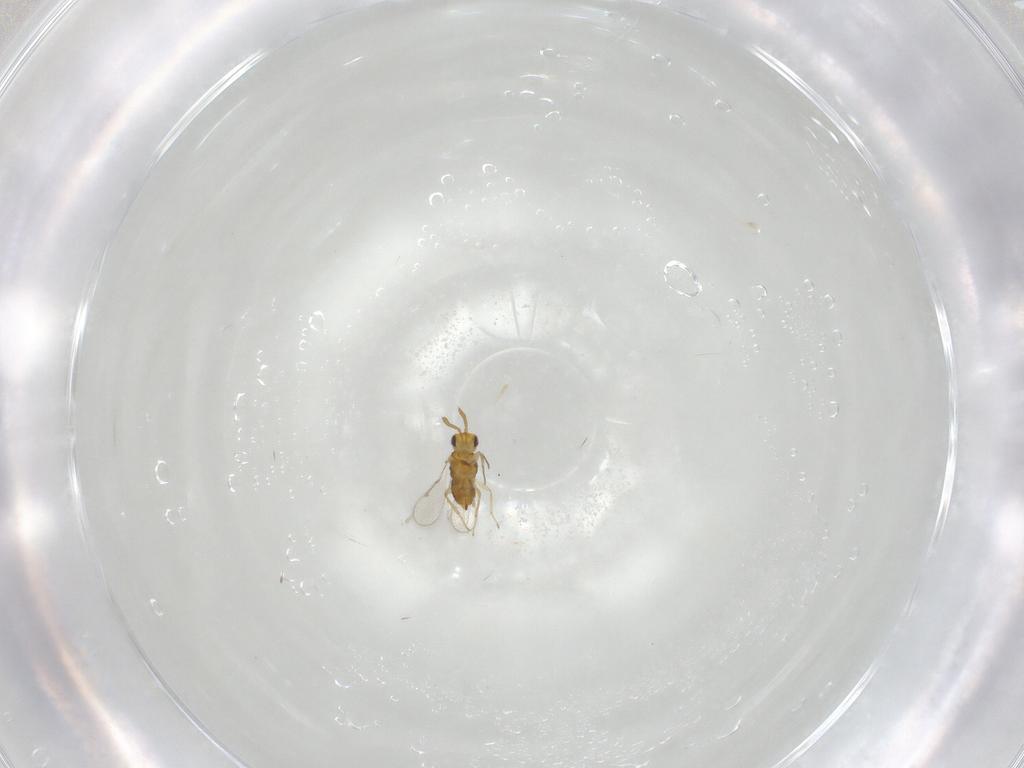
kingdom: Animalia
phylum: Arthropoda
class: Insecta
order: Hymenoptera
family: Aphelinidae
